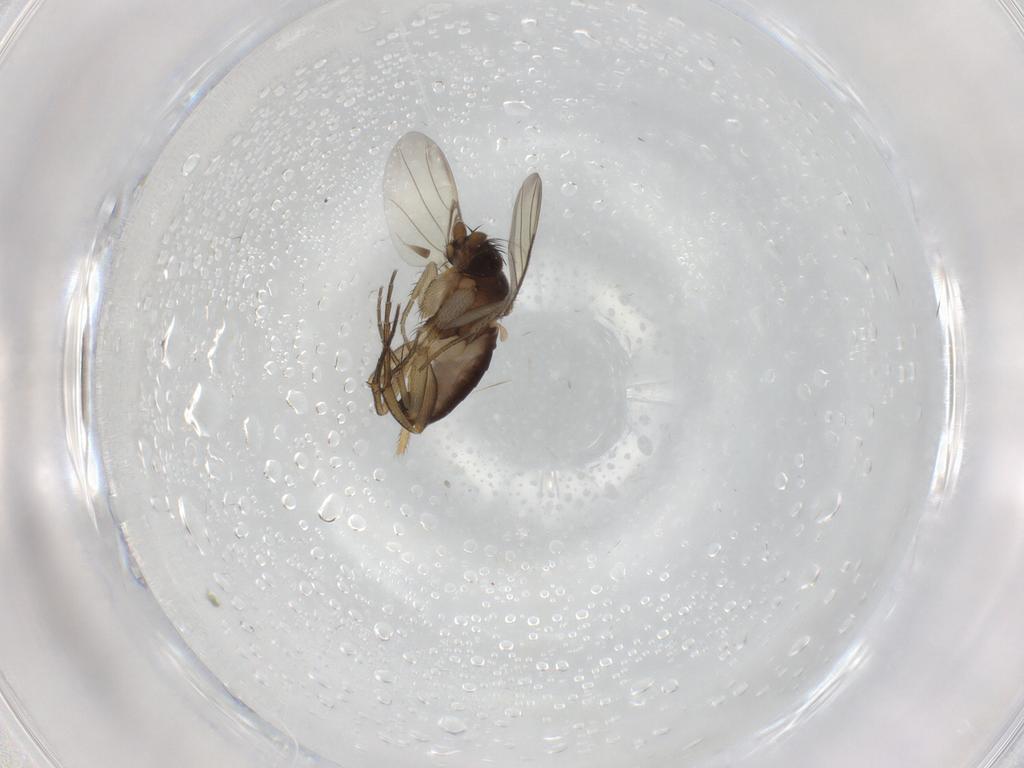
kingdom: Animalia
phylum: Arthropoda
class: Insecta
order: Diptera
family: Phoridae
